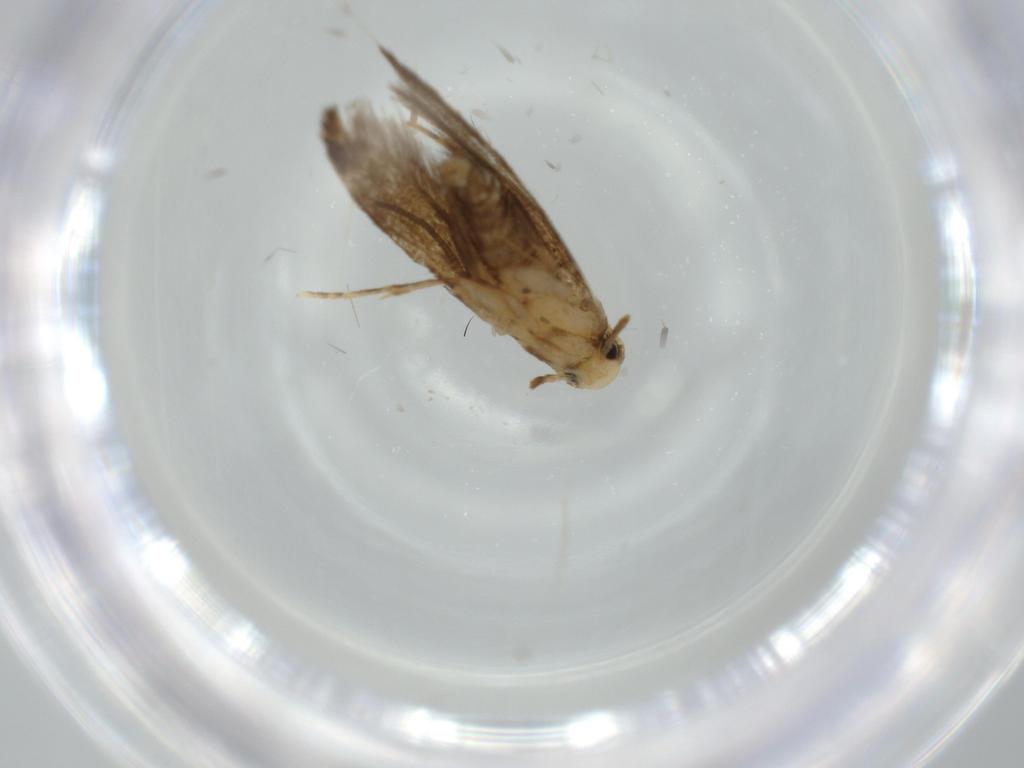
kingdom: Animalia
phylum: Arthropoda
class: Insecta
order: Lepidoptera
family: Tineidae
